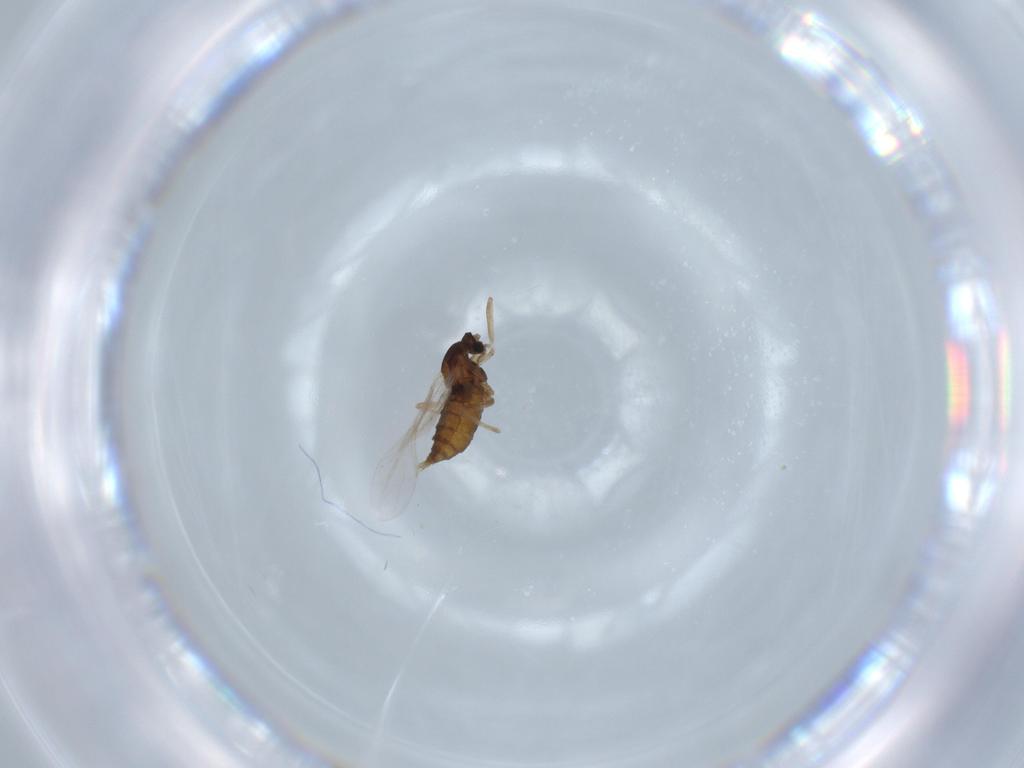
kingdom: Animalia
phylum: Arthropoda
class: Insecta
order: Diptera
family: Cecidomyiidae
